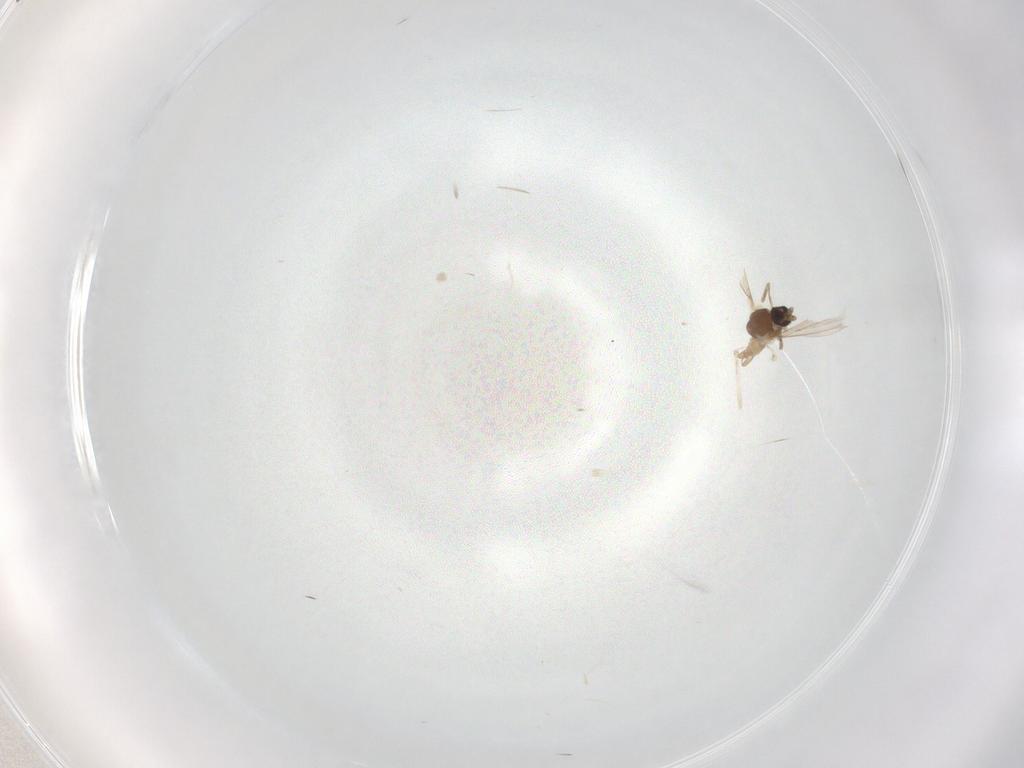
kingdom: Animalia
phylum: Arthropoda
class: Insecta
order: Diptera
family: Cecidomyiidae
